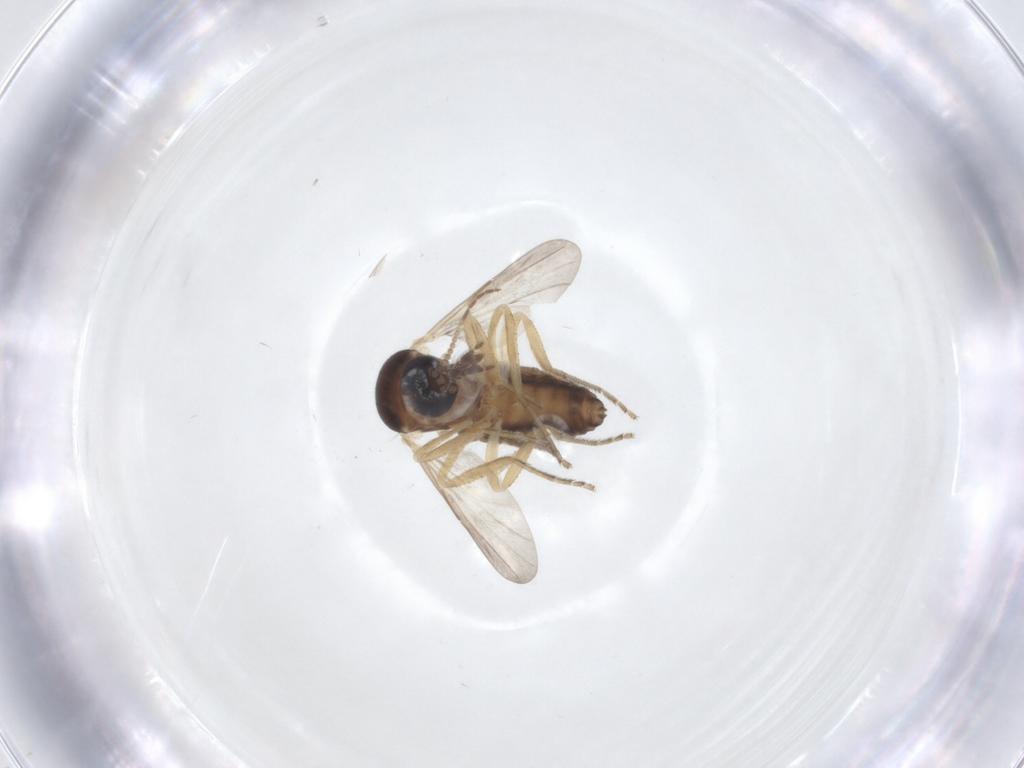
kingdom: Animalia
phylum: Arthropoda
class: Insecta
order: Diptera
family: Ceratopogonidae
